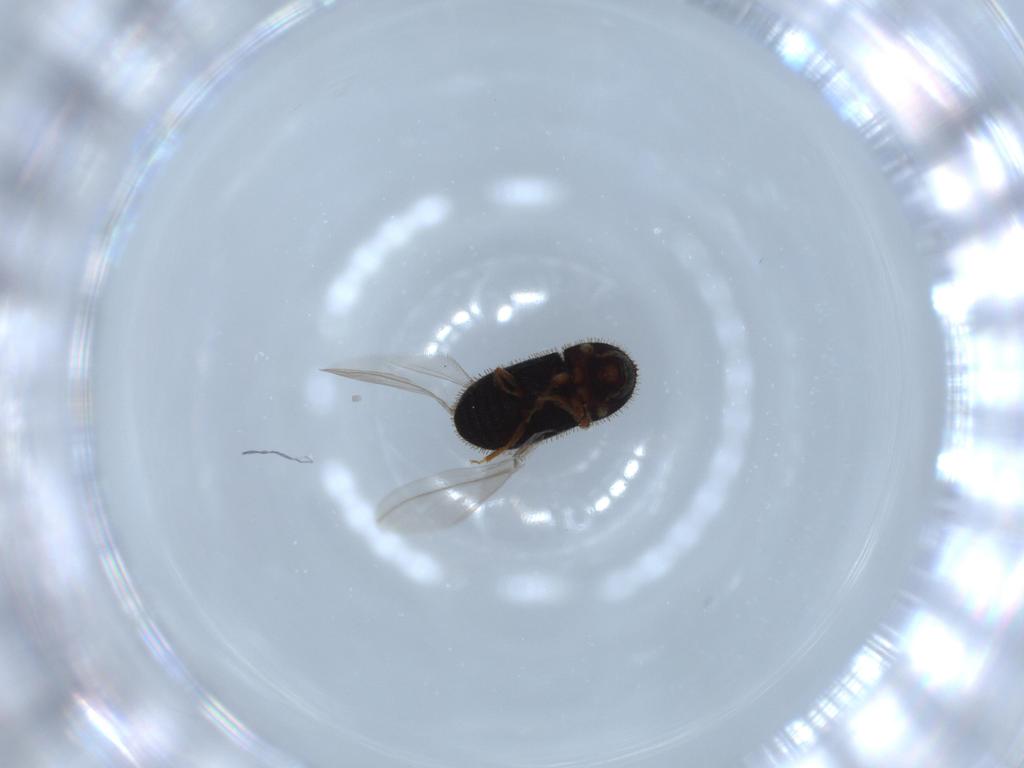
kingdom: Animalia
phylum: Arthropoda
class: Insecta
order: Coleoptera
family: Curculionidae
